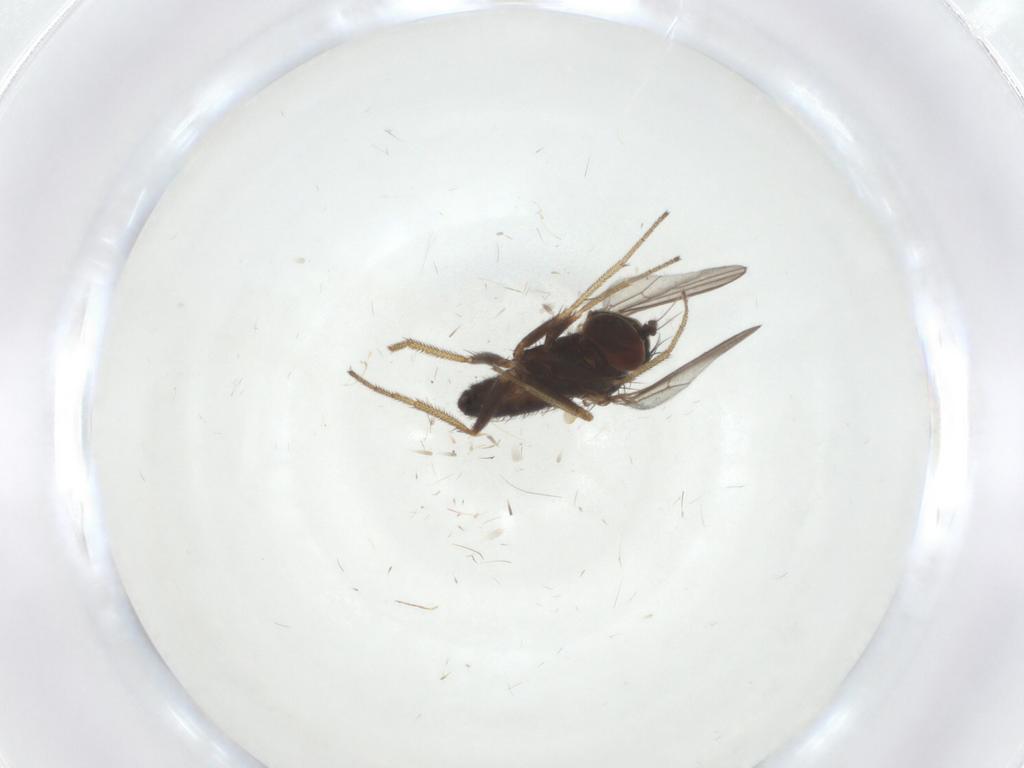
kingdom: Animalia
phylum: Arthropoda
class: Insecta
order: Diptera
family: Dolichopodidae
